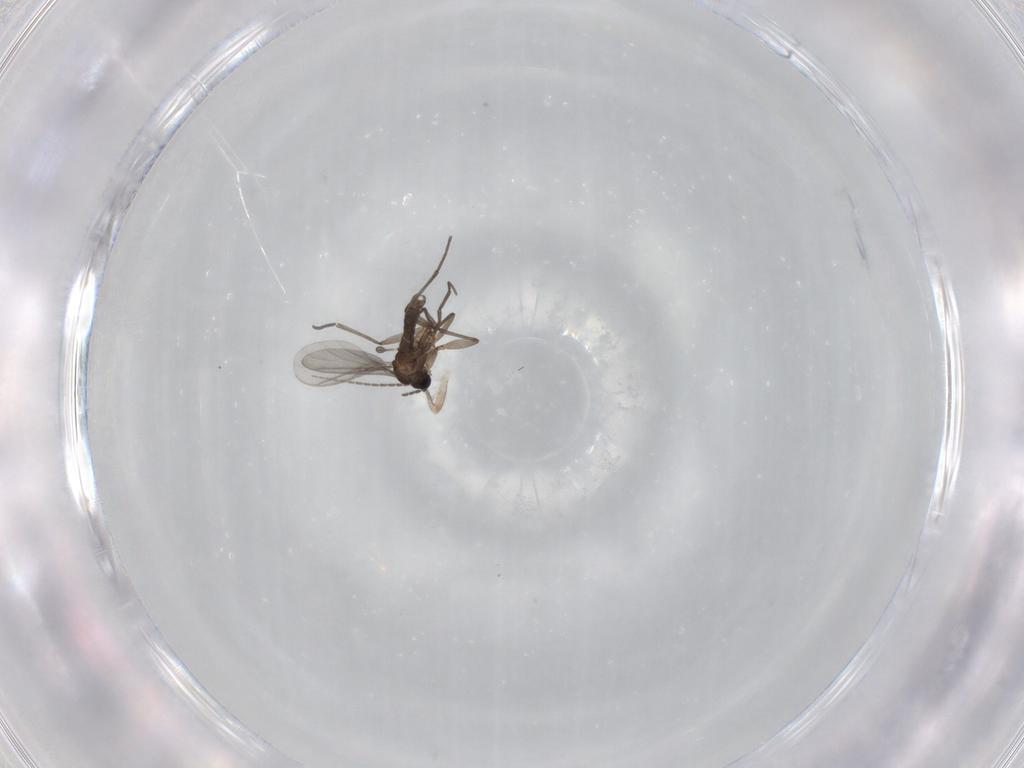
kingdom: Animalia
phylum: Arthropoda
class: Insecta
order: Diptera
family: Sciaridae
